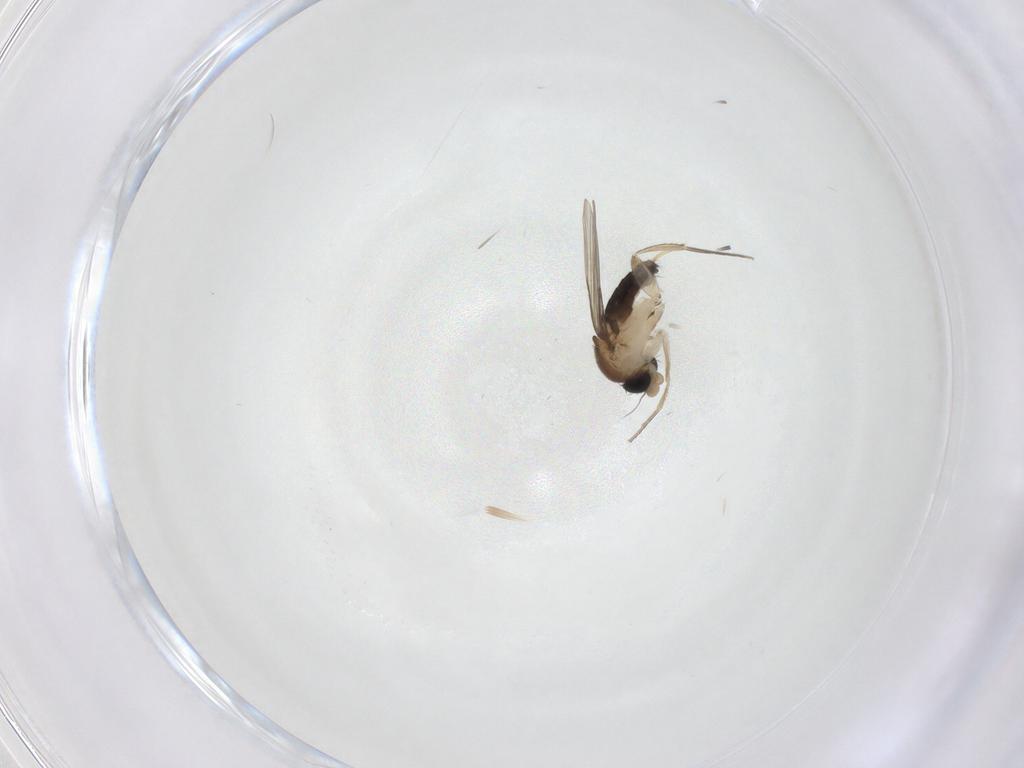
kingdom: Animalia
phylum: Arthropoda
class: Insecta
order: Diptera
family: Phoridae
